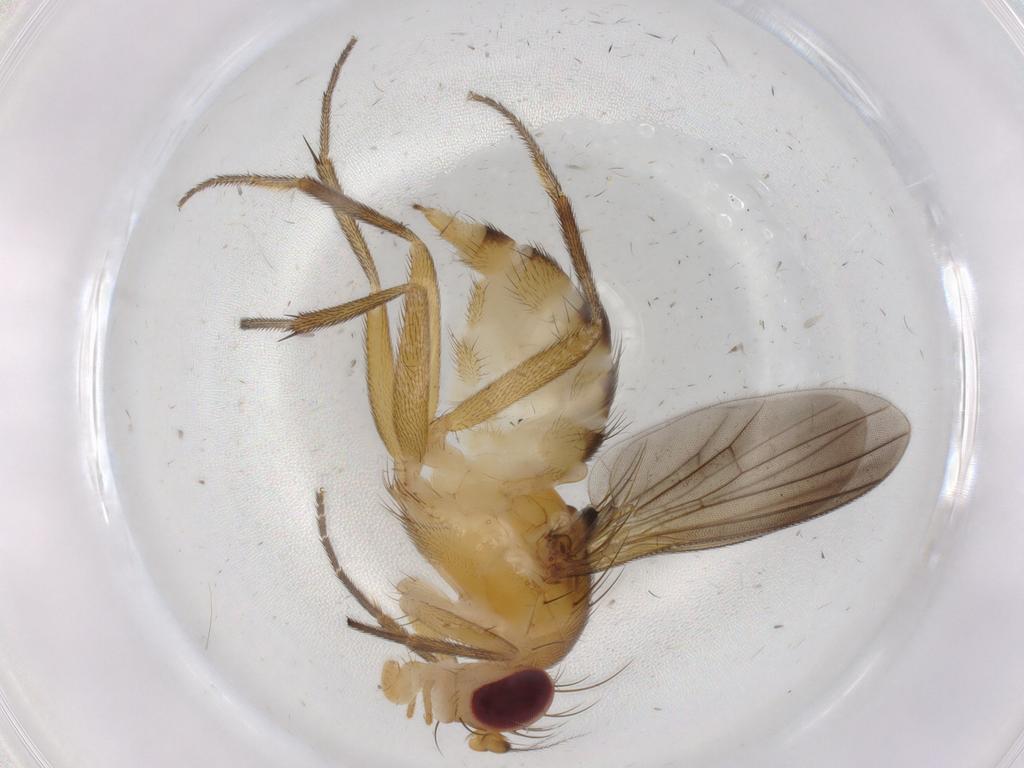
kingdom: Animalia
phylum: Arthropoda
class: Insecta
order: Diptera
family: Clusiidae
